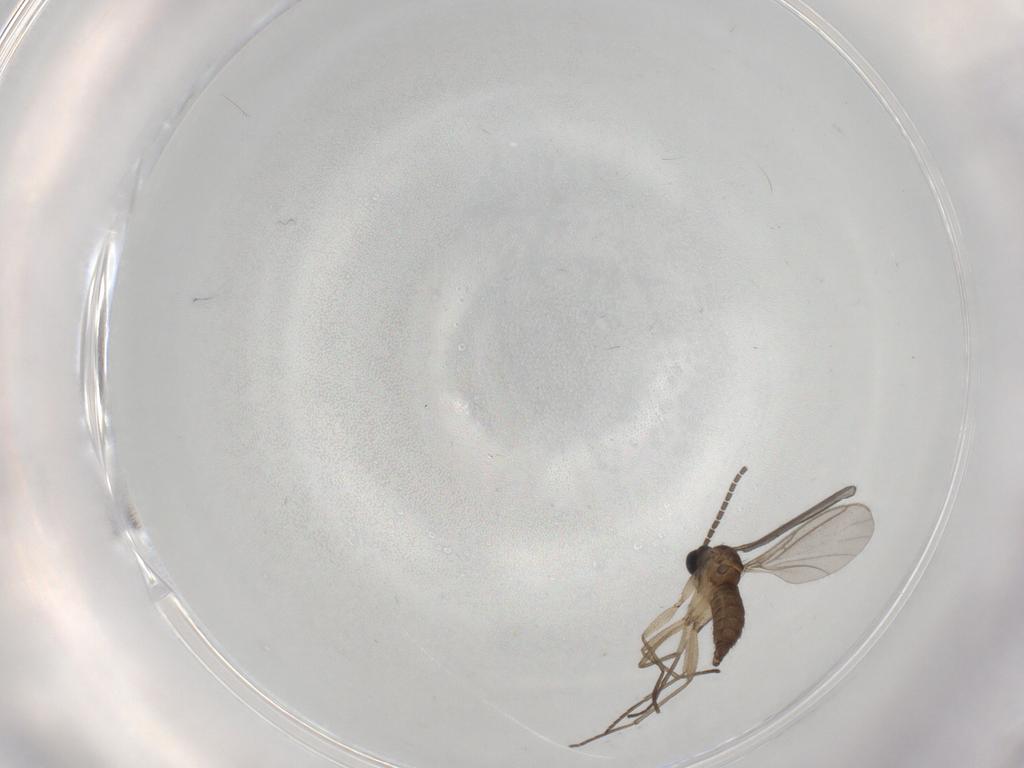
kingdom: Animalia
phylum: Arthropoda
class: Insecta
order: Diptera
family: Sciaridae
